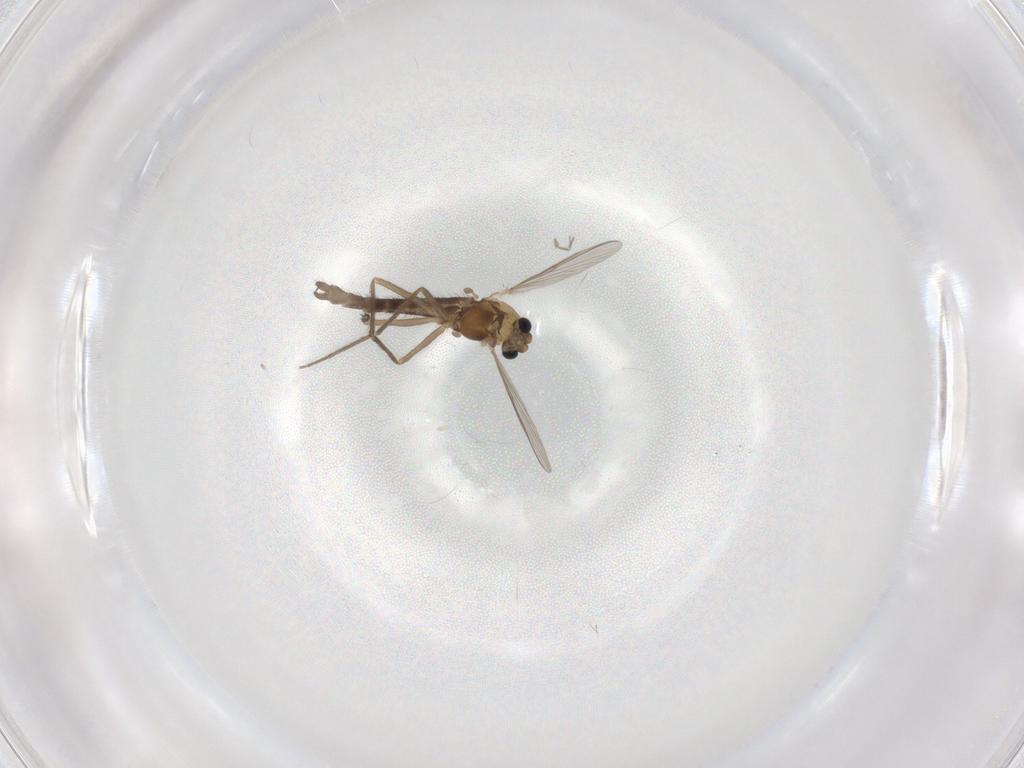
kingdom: Animalia
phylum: Arthropoda
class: Insecta
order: Diptera
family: Chironomidae
